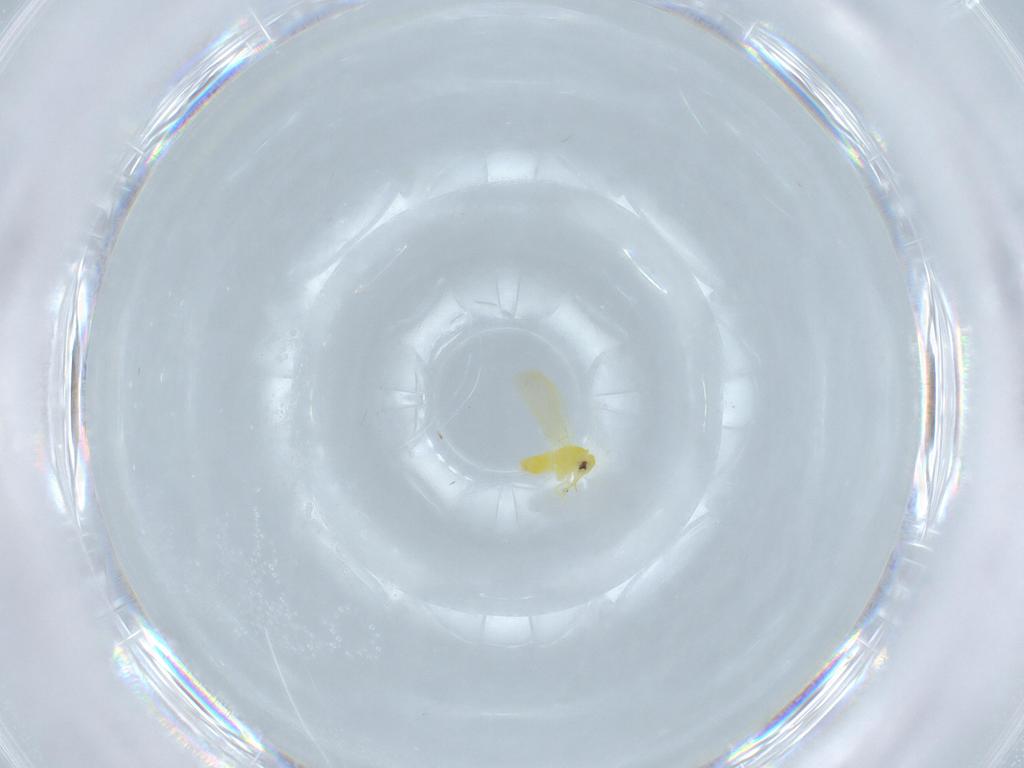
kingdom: Animalia
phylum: Arthropoda
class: Insecta
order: Hemiptera
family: Aleyrodidae
